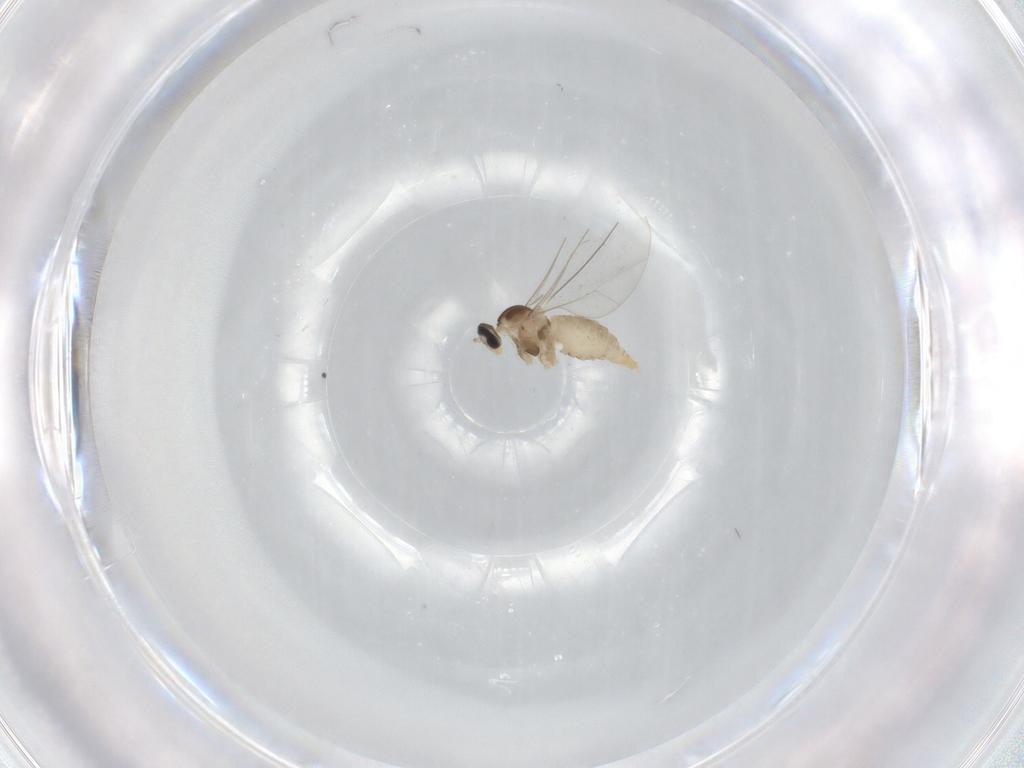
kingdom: Animalia
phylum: Arthropoda
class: Insecta
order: Diptera
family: Cecidomyiidae
